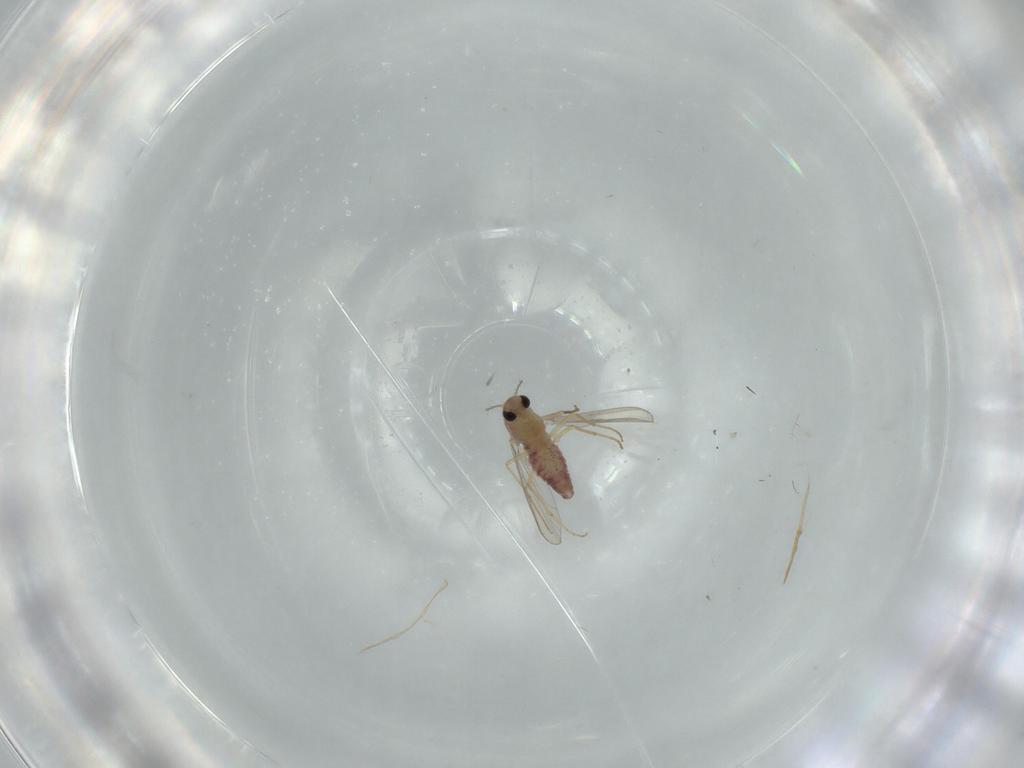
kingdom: Animalia
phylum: Arthropoda
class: Insecta
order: Diptera
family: Chironomidae
